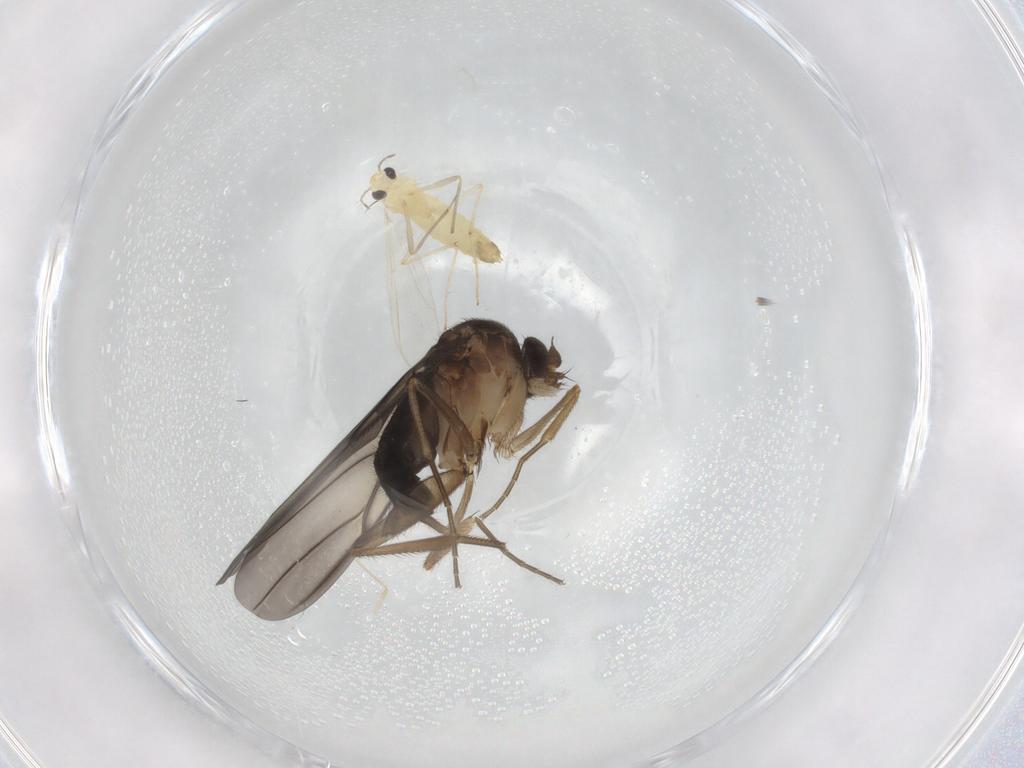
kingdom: Animalia
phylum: Arthropoda
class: Insecta
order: Diptera
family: Phoridae
